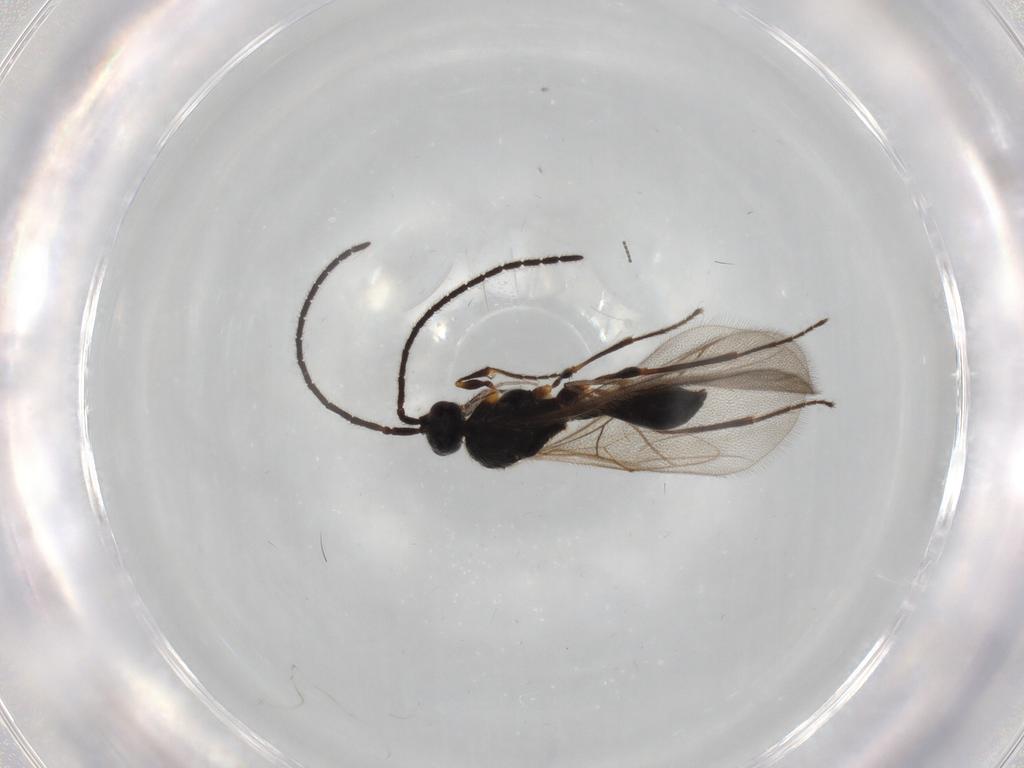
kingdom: Animalia
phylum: Arthropoda
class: Insecta
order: Hymenoptera
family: Diapriidae
